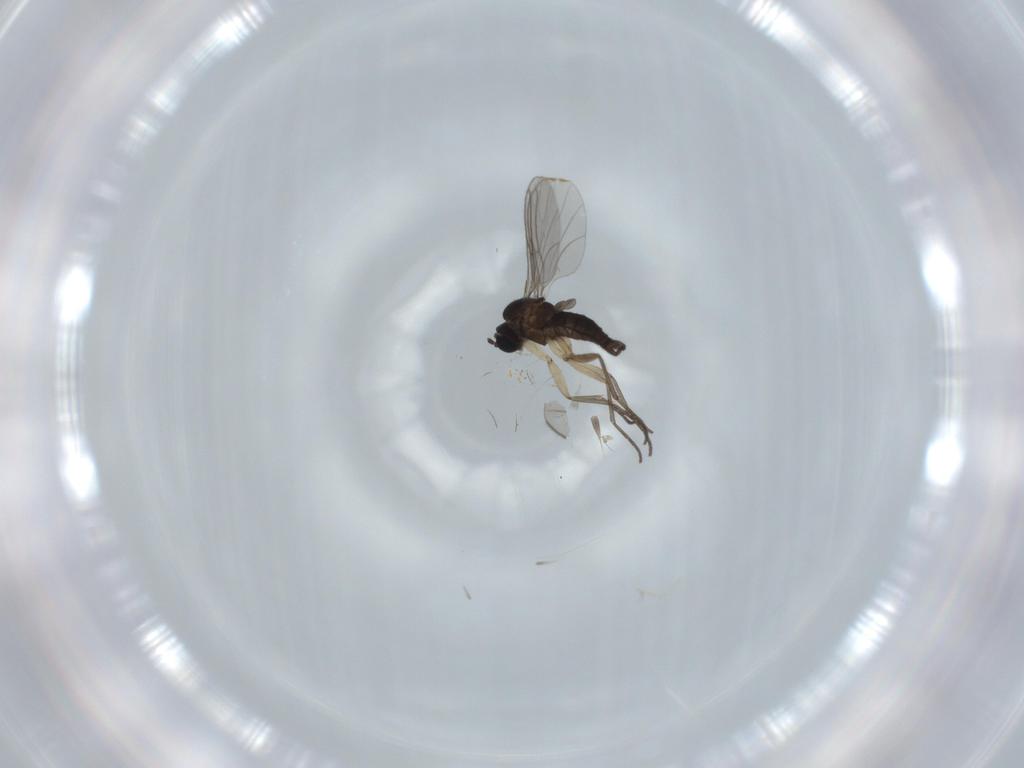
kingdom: Animalia
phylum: Arthropoda
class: Insecta
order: Diptera
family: Sciaridae
